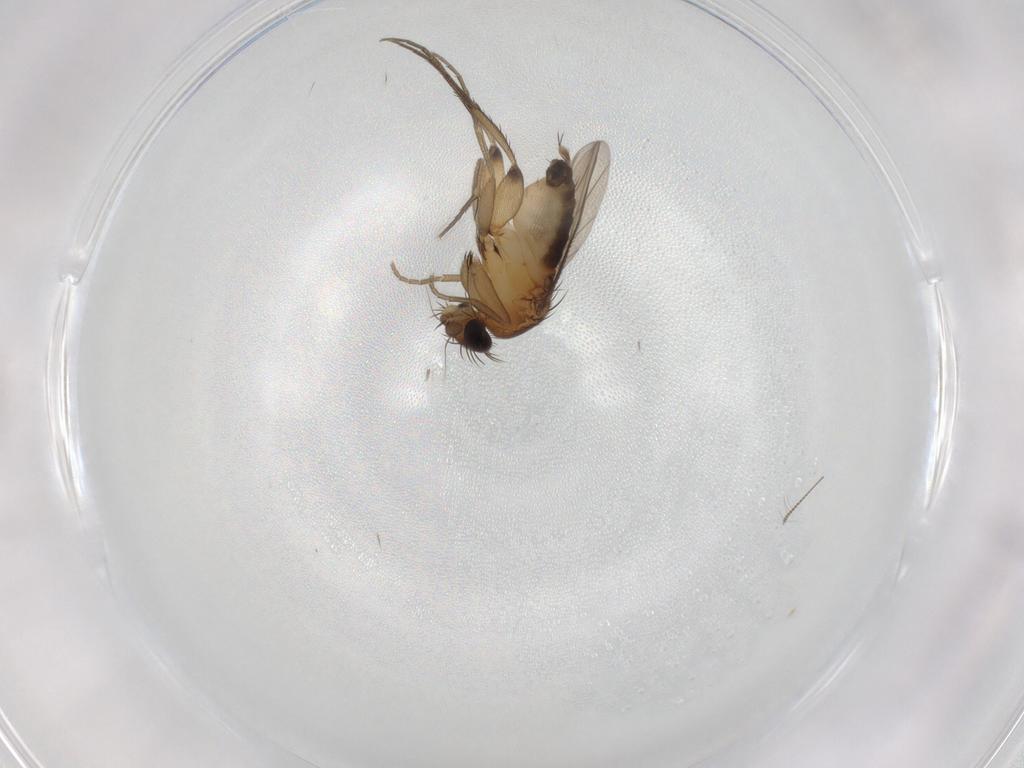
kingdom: Animalia
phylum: Arthropoda
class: Insecta
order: Diptera
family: Phoridae
